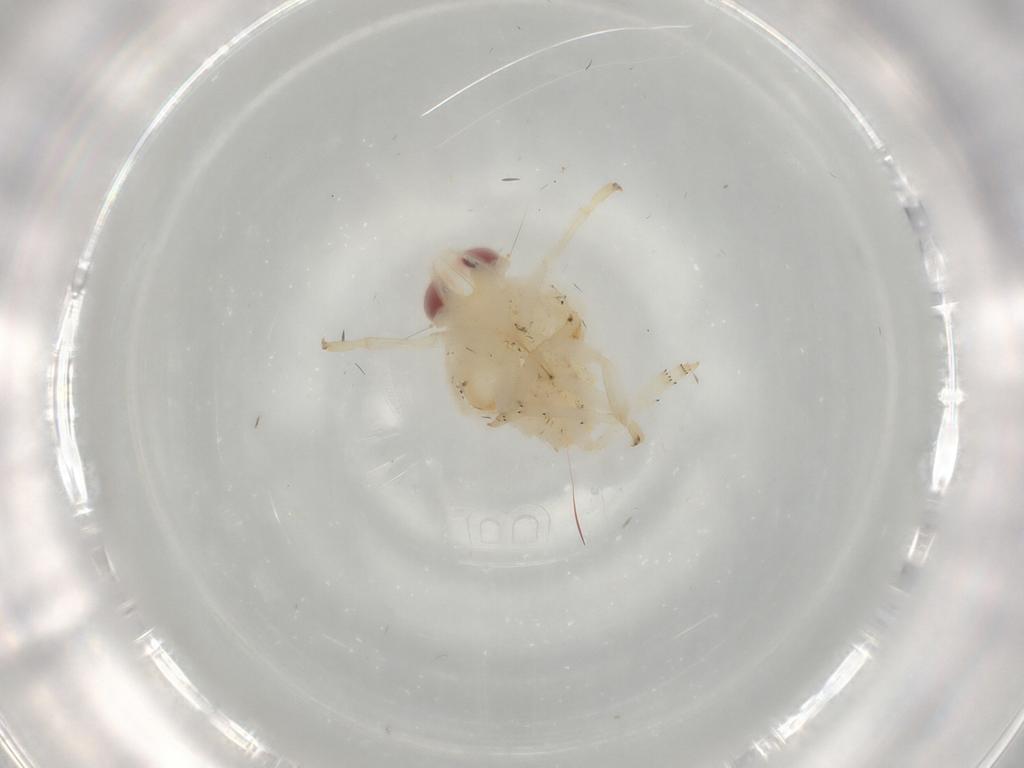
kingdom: Animalia
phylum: Arthropoda
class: Insecta
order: Hemiptera
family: Nogodinidae
